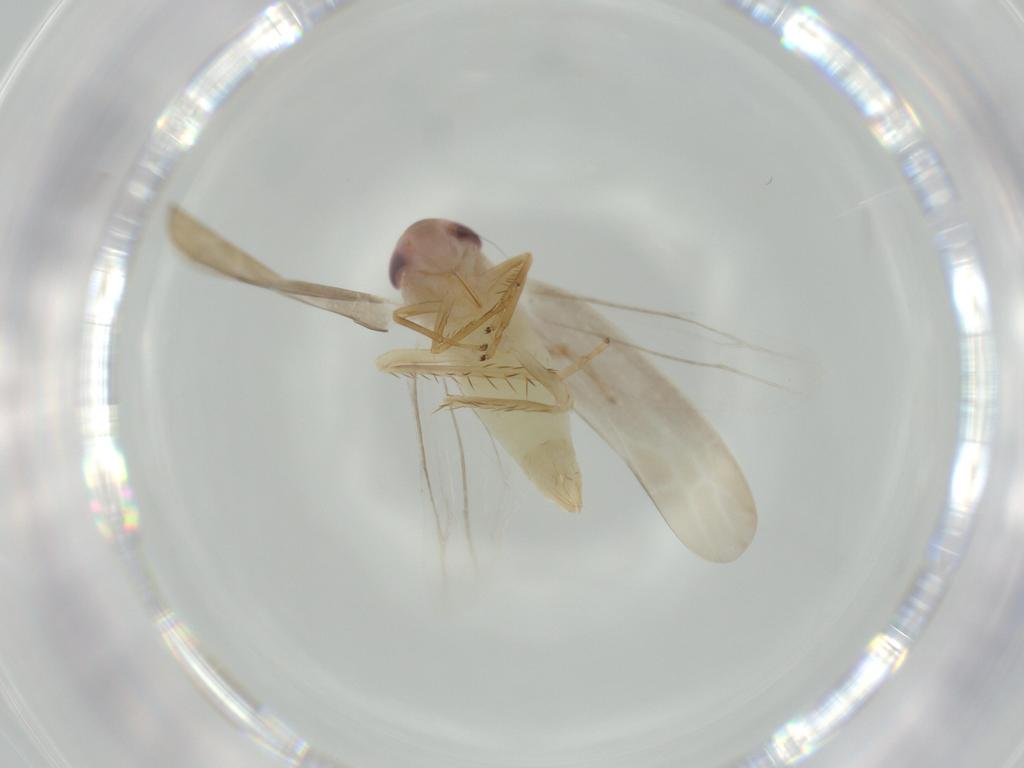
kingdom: Animalia
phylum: Arthropoda
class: Insecta
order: Hemiptera
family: Cicadellidae
